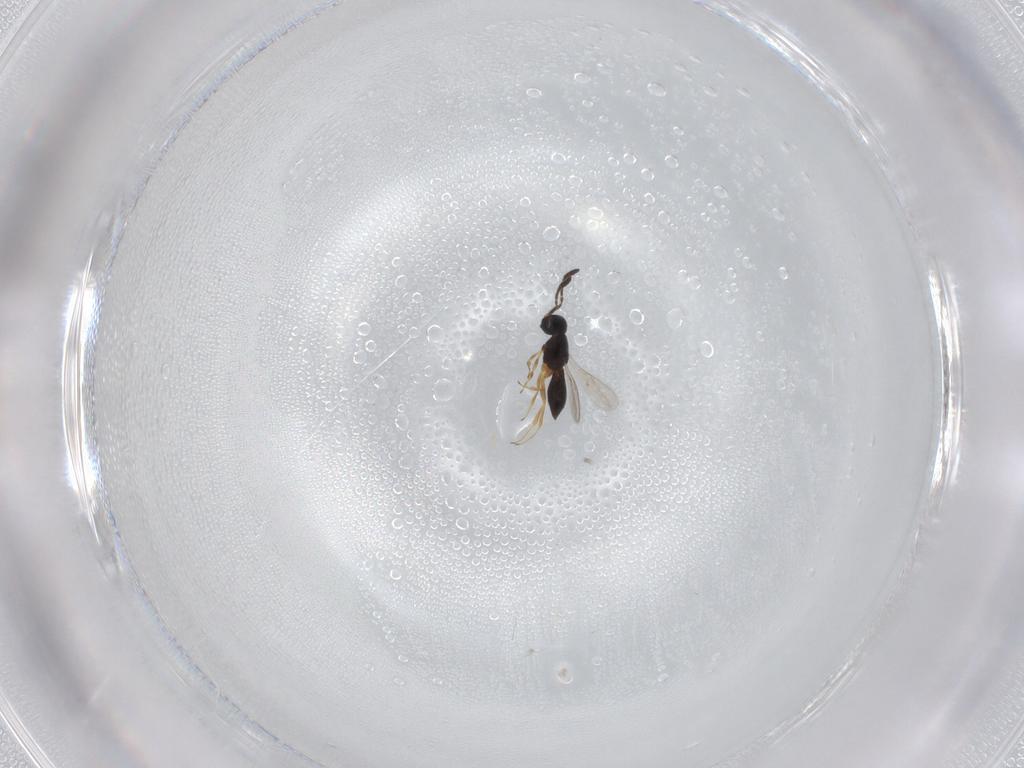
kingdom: Animalia
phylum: Arthropoda
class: Insecta
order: Hymenoptera
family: Scelionidae
